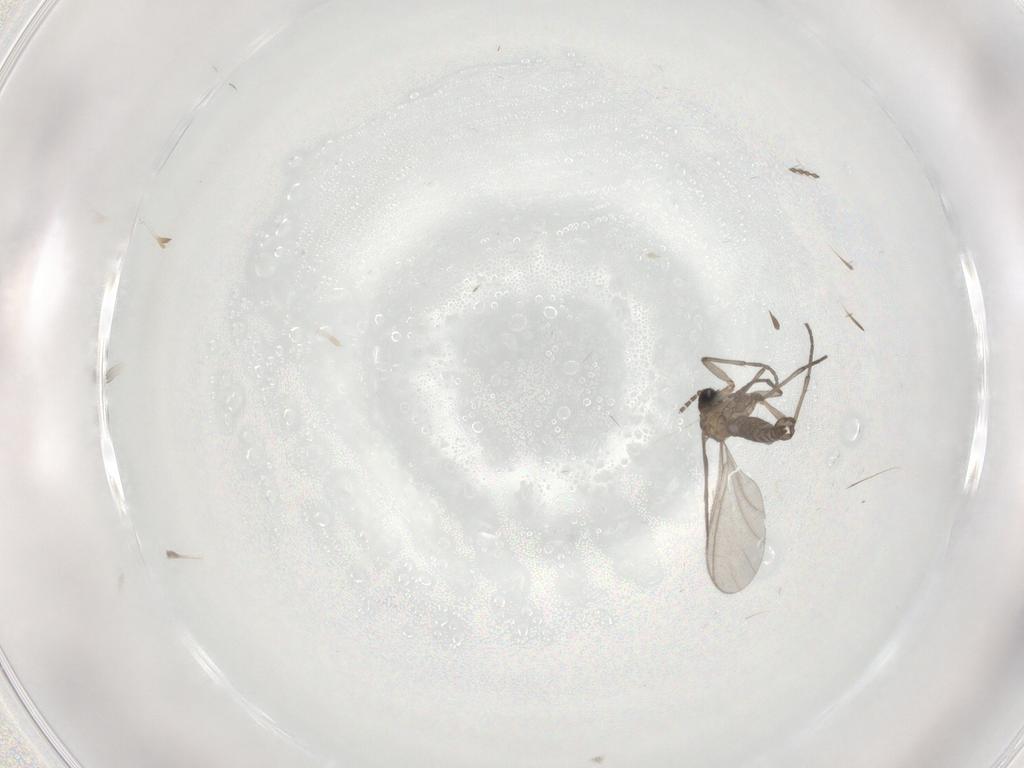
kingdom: Animalia
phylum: Arthropoda
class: Insecta
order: Diptera
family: Sciaridae
